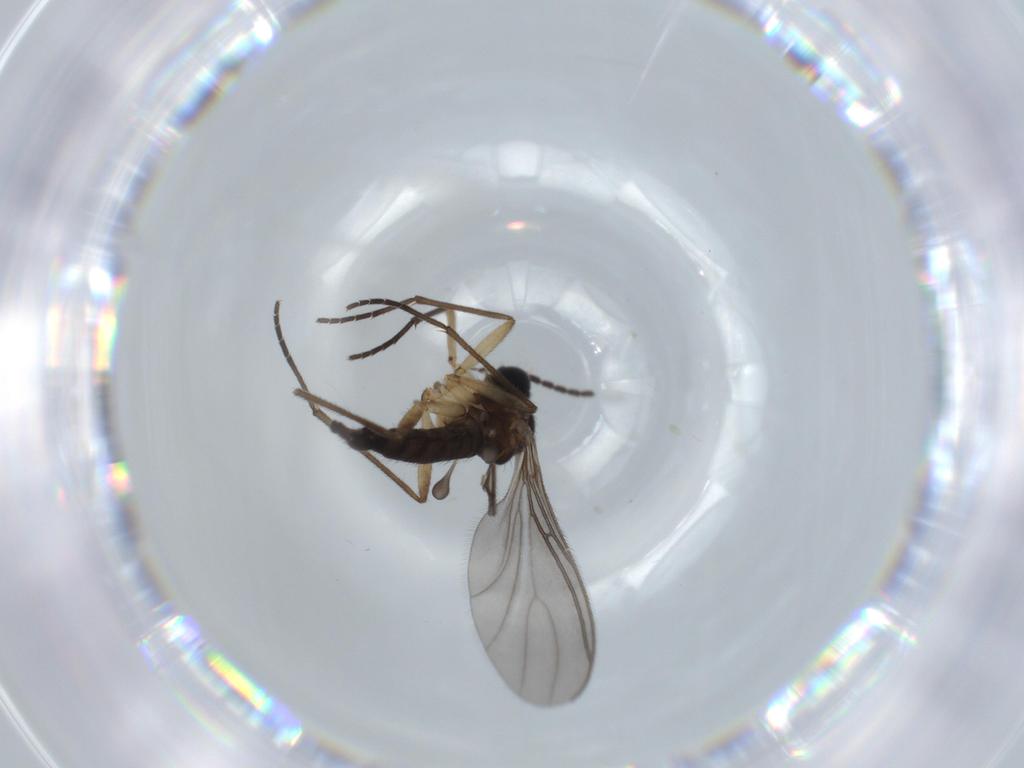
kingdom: Animalia
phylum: Arthropoda
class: Insecta
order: Diptera
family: Sciaridae
